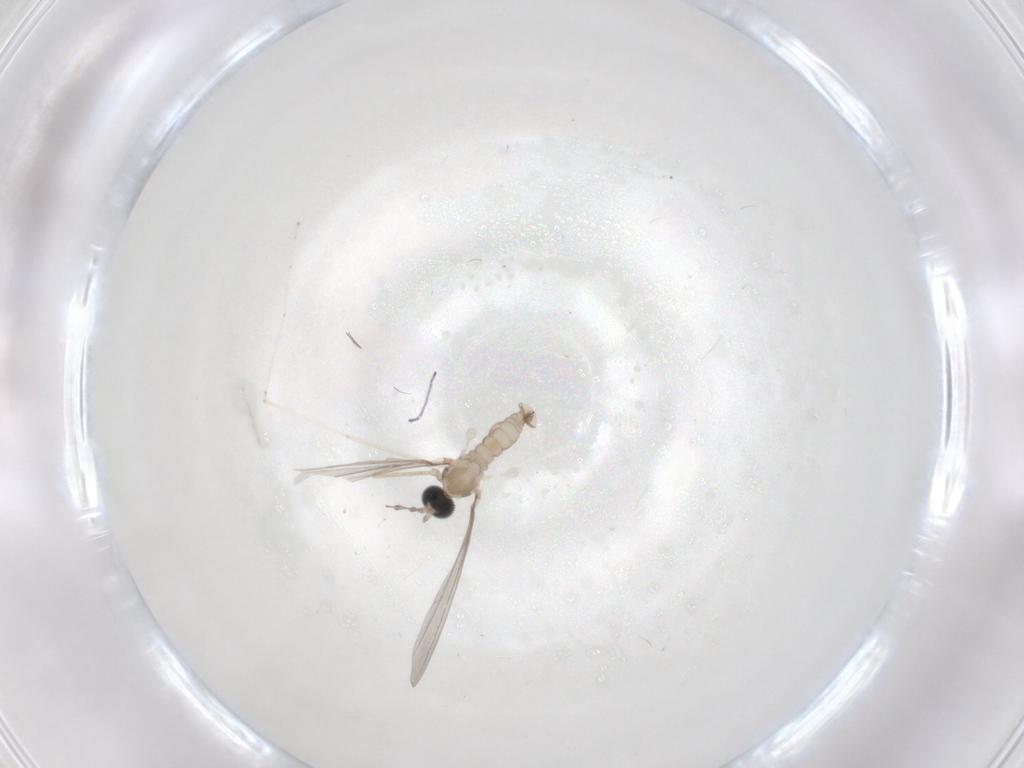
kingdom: Animalia
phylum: Arthropoda
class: Insecta
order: Diptera
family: Cecidomyiidae
